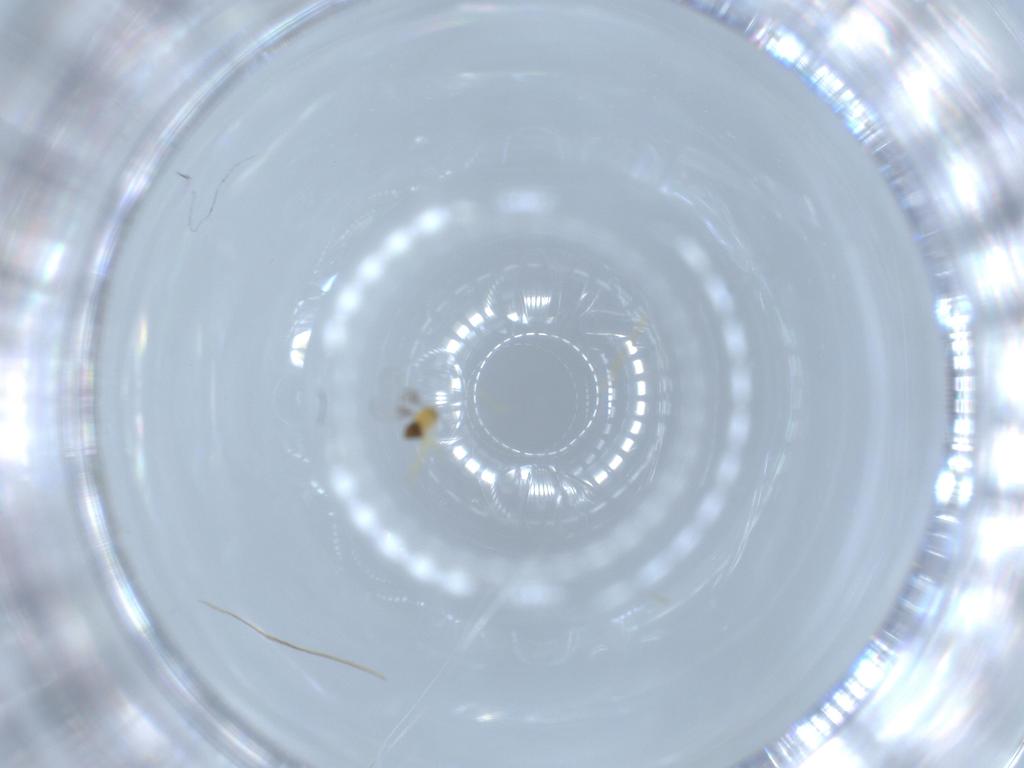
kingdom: Animalia
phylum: Arthropoda
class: Insecta
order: Hymenoptera
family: Trichogrammatidae
